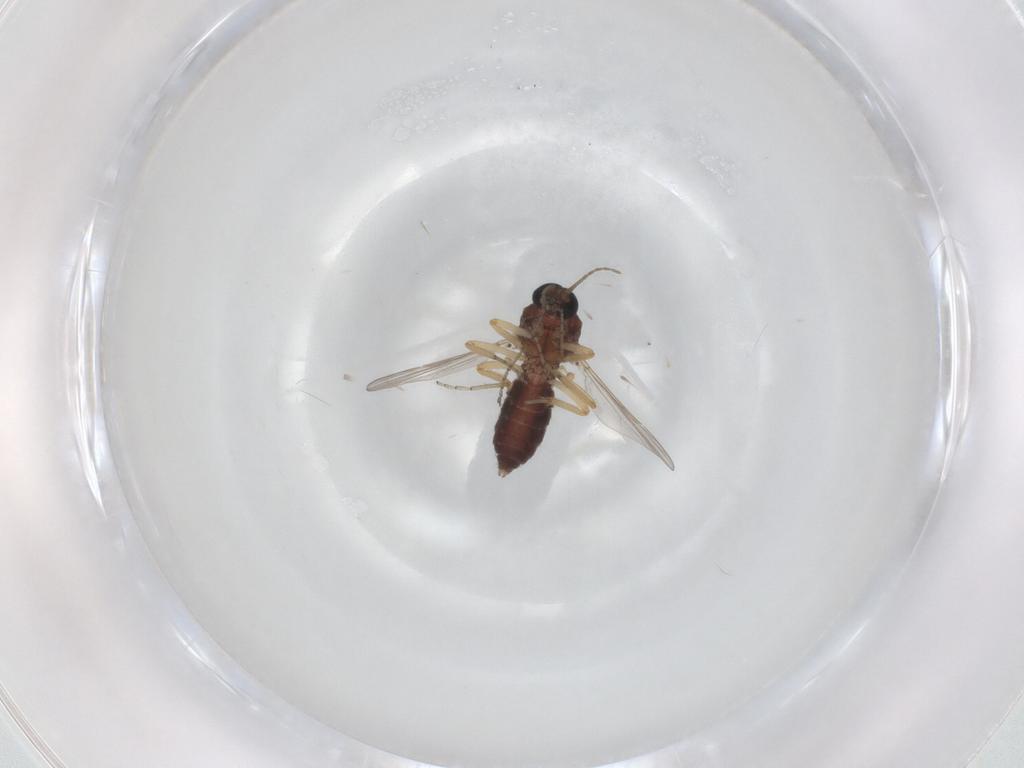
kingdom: Animalia
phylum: Arthropoda
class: Insecta
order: Diptera
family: Ceratopogonidae
